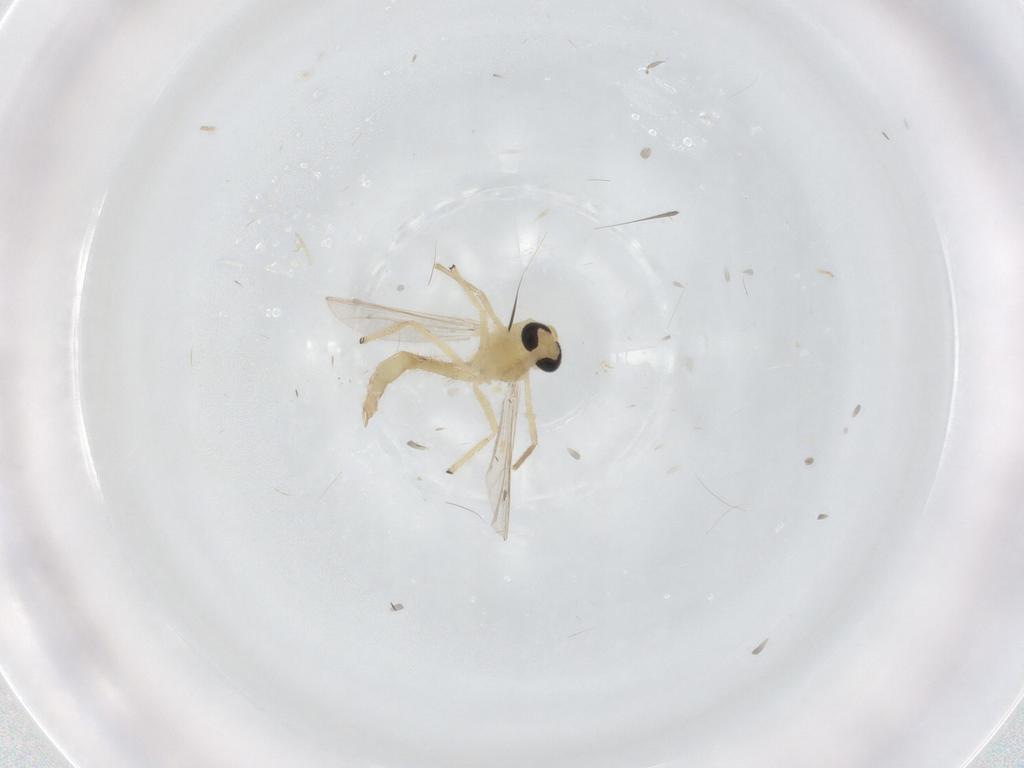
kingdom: Animalia
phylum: Arthropoda
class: Insecta
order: Diptera
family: Chironomidae
